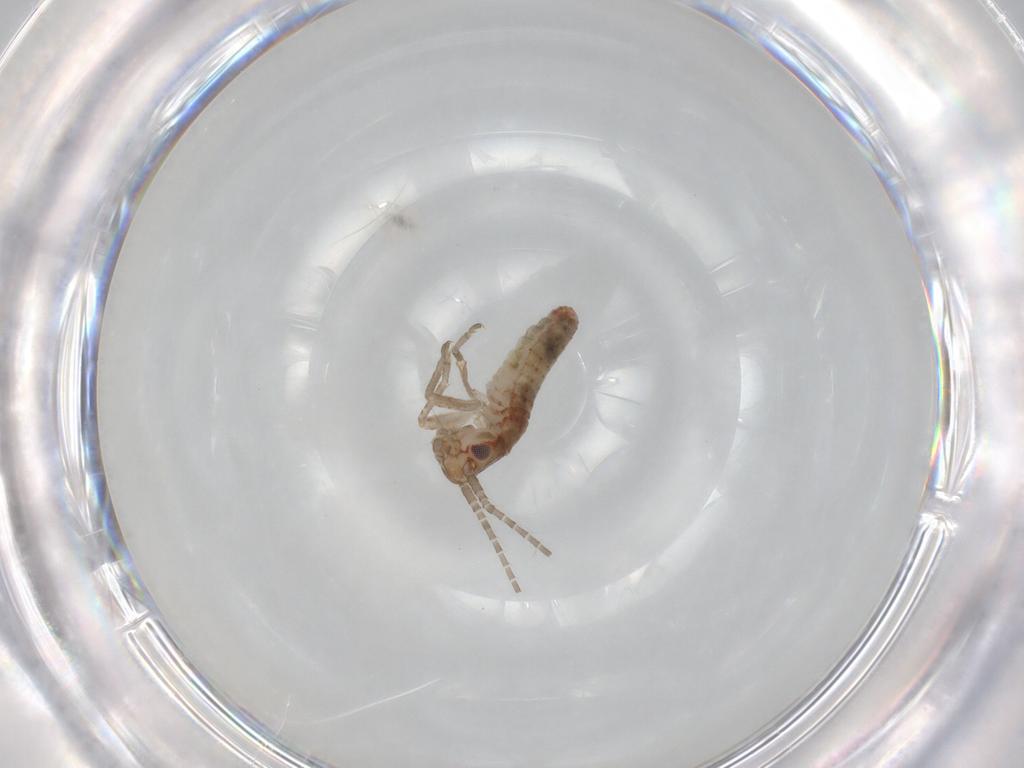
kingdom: Animalia
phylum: Arthropoda
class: Insecta
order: Orthoptera
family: Mogoplistidae
